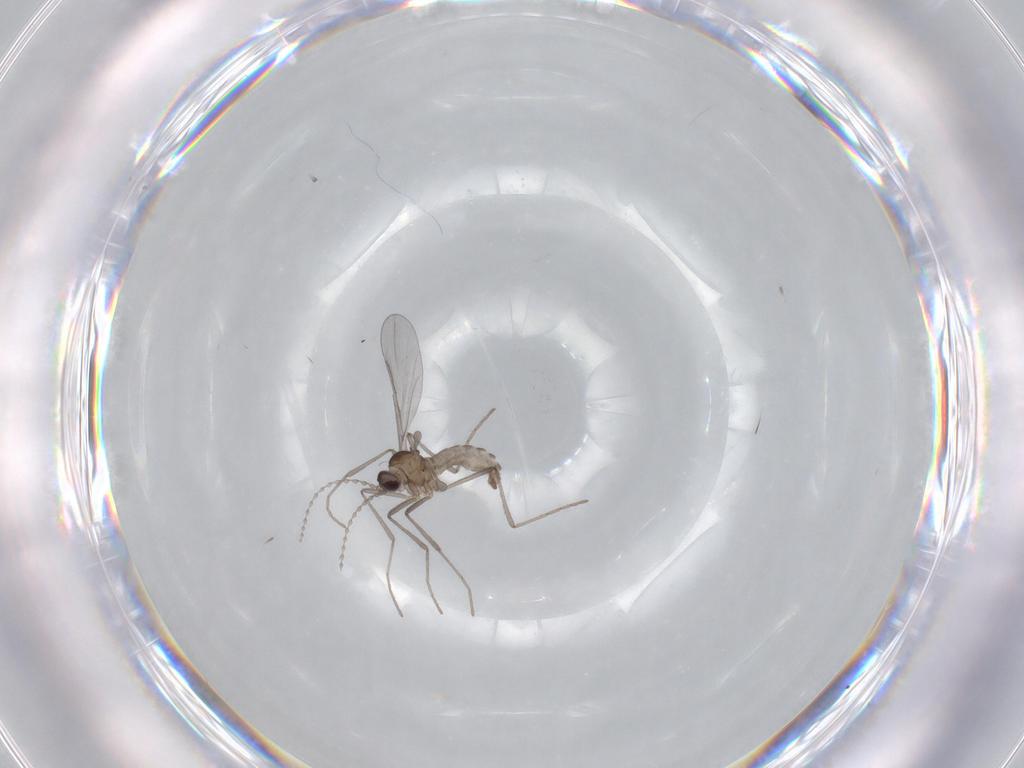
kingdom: Animalia
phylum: Arthropoda
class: Insecta
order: Diptera
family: Cecidomyiidae
